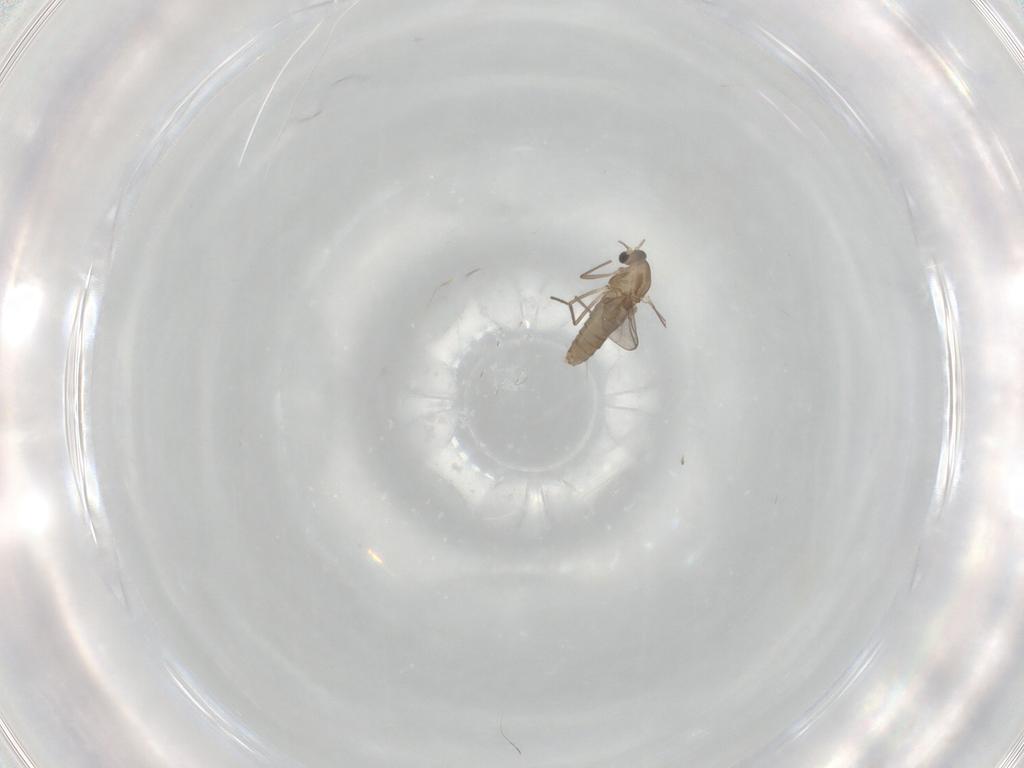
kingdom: Animalia
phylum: Arthropoda
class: Insecta
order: Diptera
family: Chironomidae
